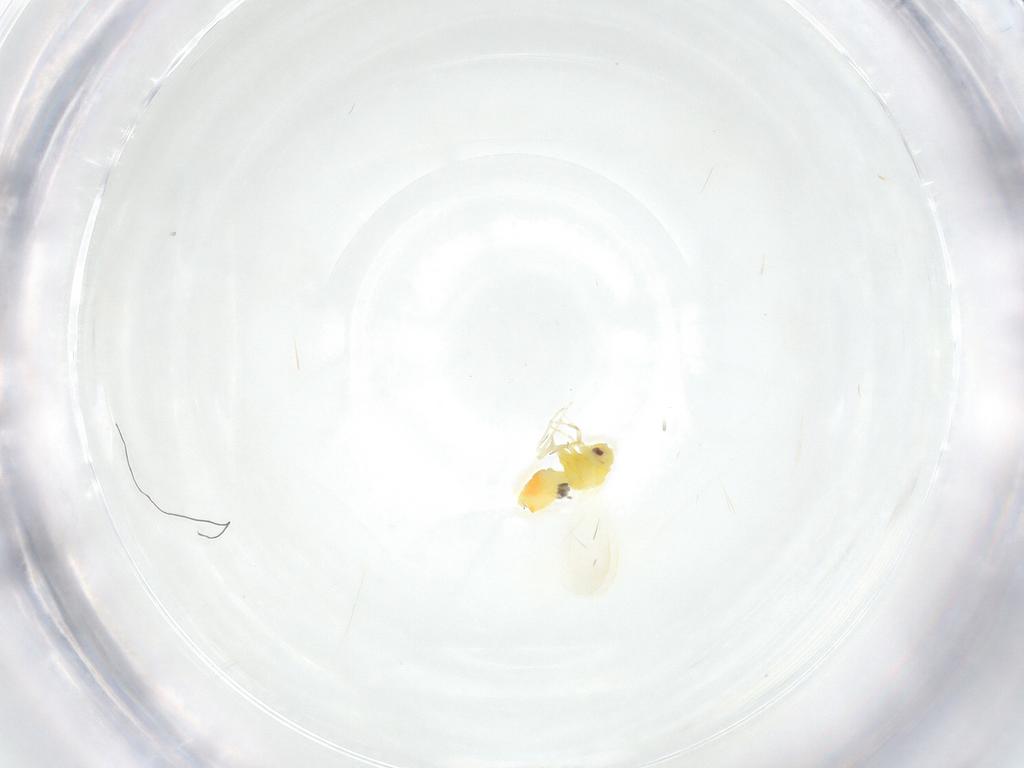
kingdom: Animalia
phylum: Arthropoda
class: Insecta
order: Hemiptera
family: Aleyrodidae
